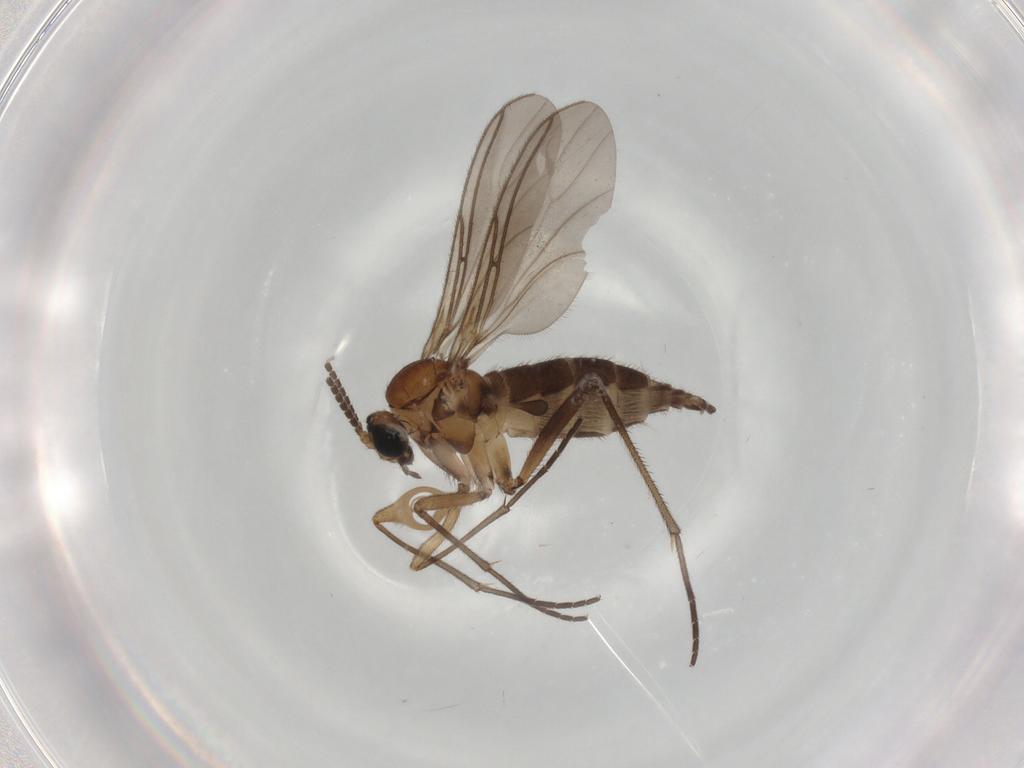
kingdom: Animalia
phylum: Arthropoda
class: Insecta
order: Diptera
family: Sciaridae
